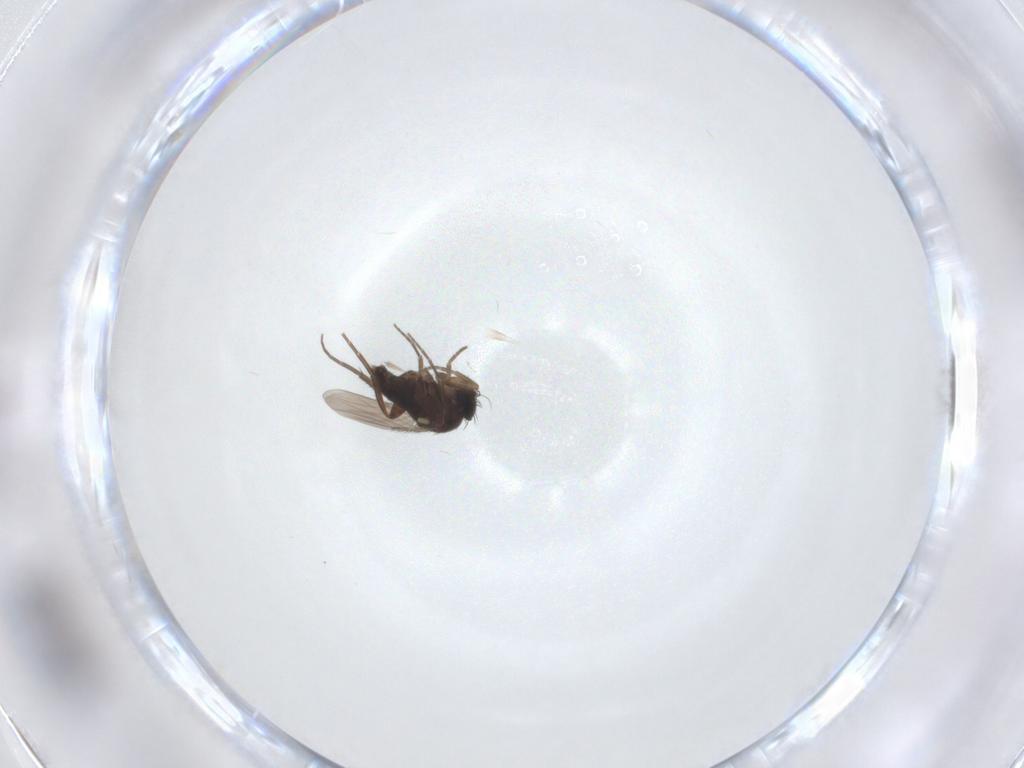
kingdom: Animalia
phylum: Arthropoda
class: Insecta
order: Diptera
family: Phoridae
